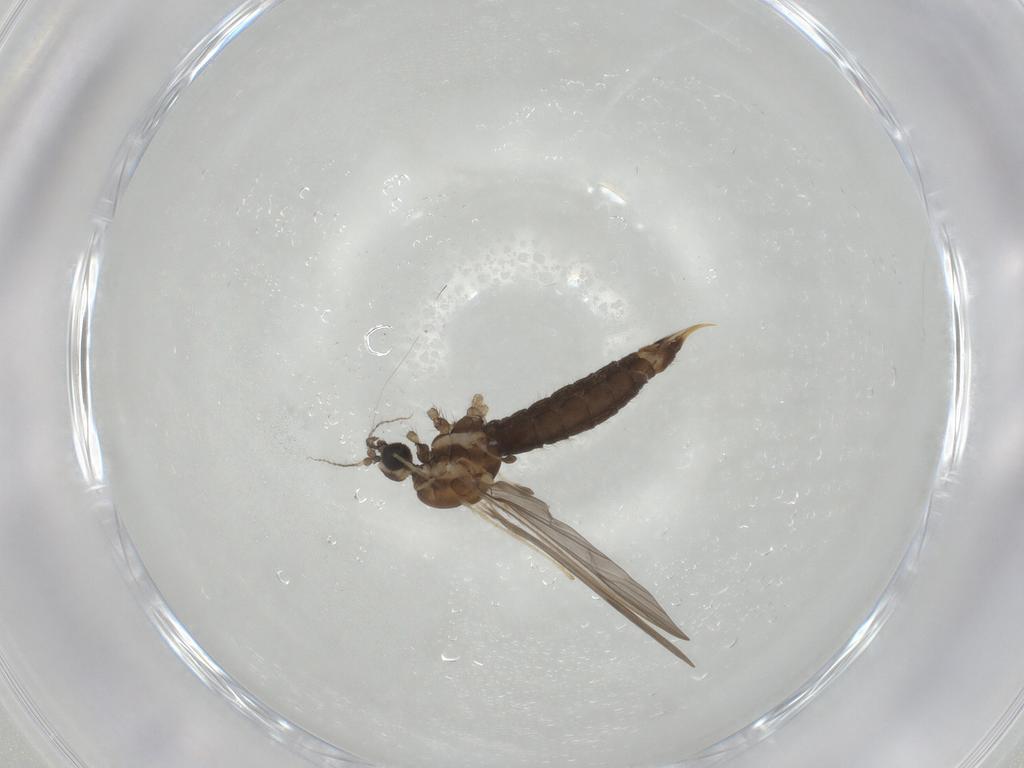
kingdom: Animalia
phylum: Arthropoda
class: Insecta
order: Diptera
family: Limoniidae
